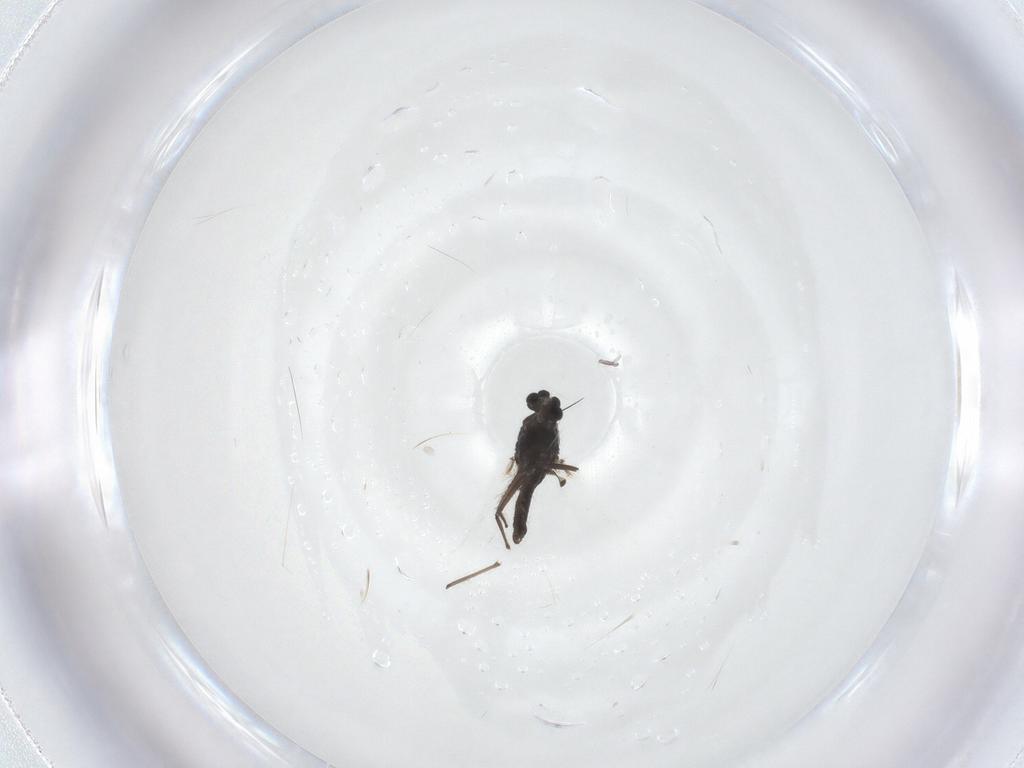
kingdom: Animalia
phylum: Arthropoda
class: Insecta
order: Diptera
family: Chironomidae
